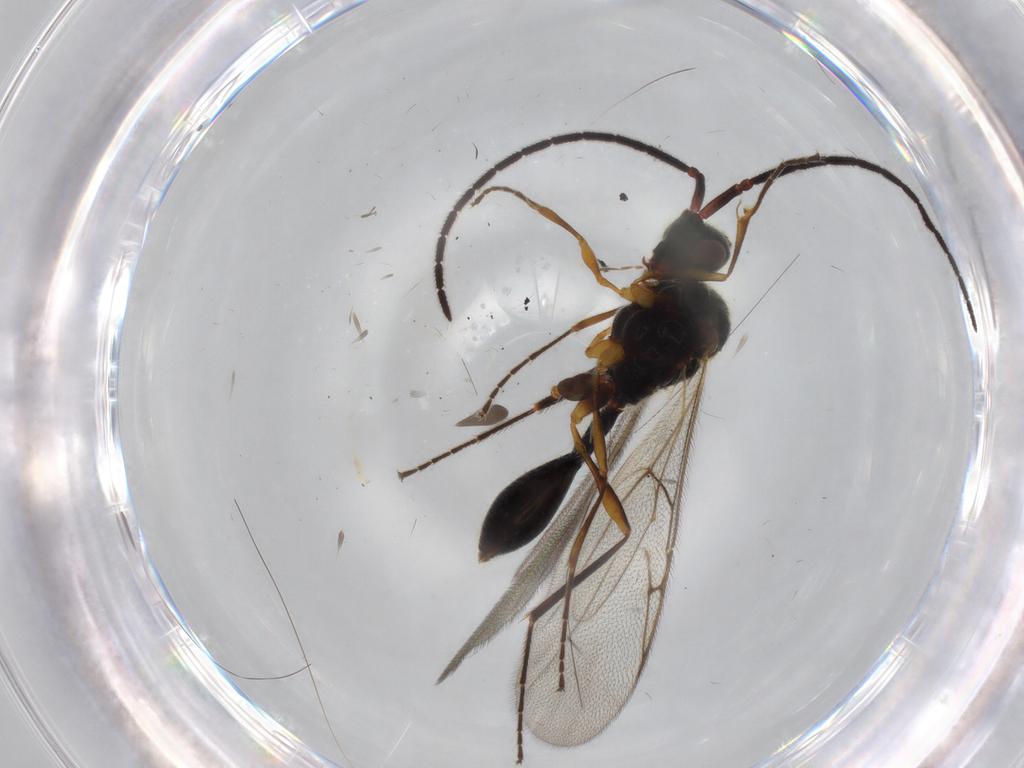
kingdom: Animalia
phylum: Arthropoda
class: Insecta
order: Hymenoptera
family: Diapriidae
